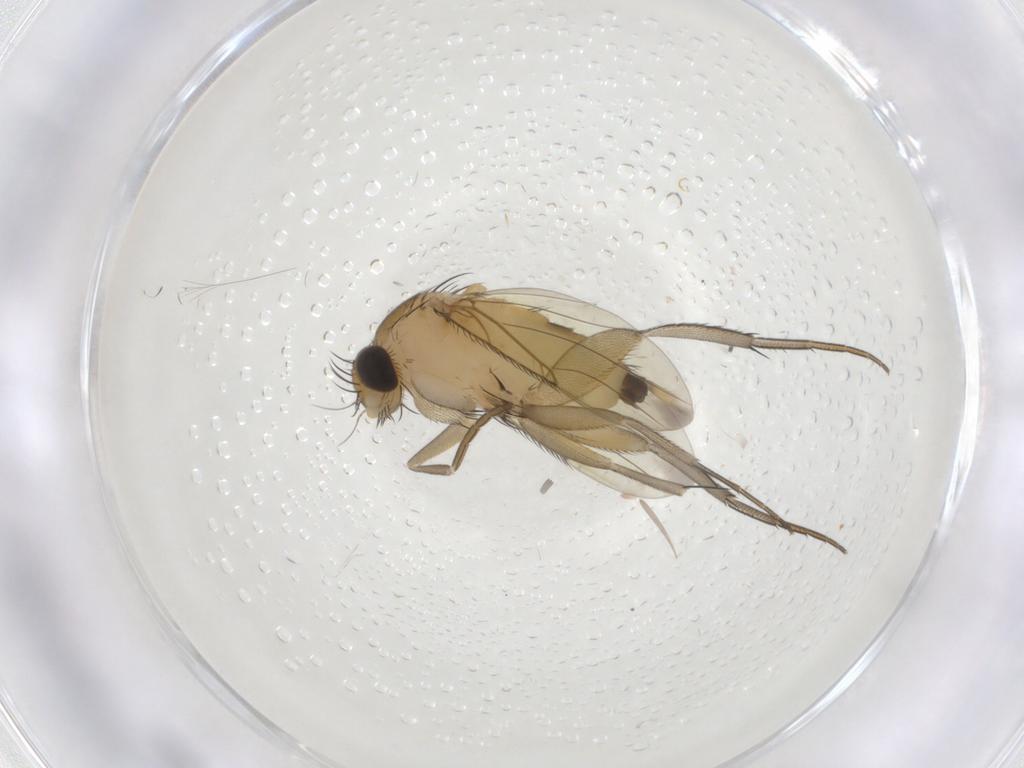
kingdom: Animalia
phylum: Arthropoda
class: Insecta
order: Diptera
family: Phoridae
